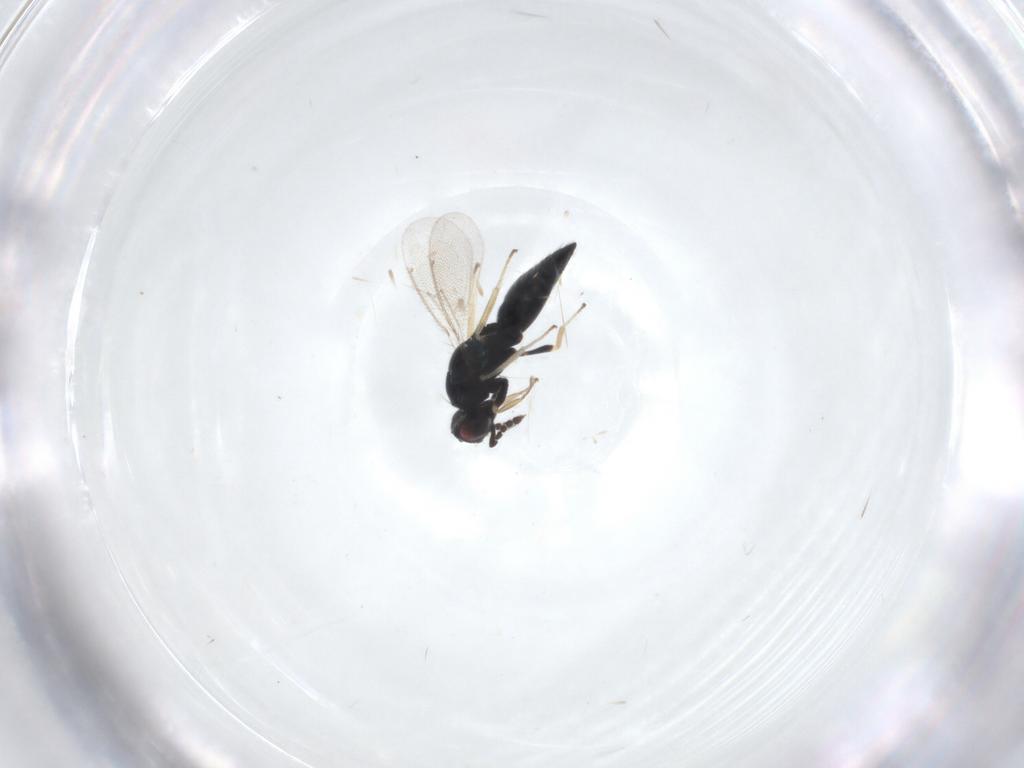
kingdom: Animalia
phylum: Arthropoda
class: Insecta
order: Hymenoptera
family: Eulophidae
